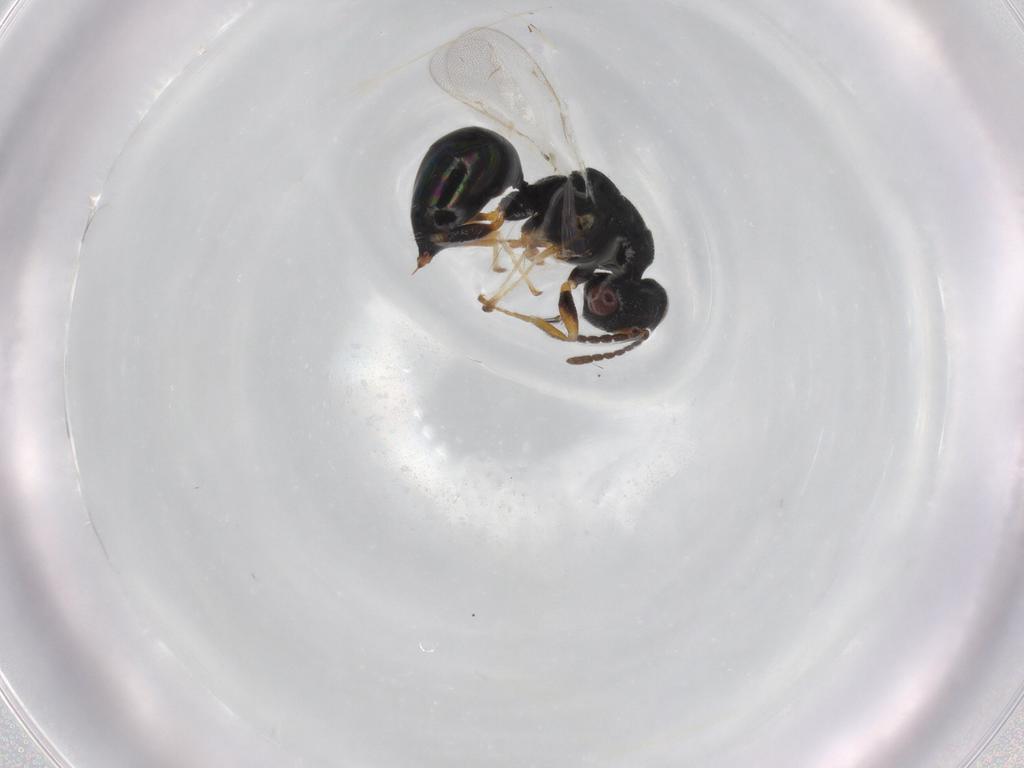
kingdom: Animalia
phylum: Arthropoda
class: Insecta
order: Hymenoptera
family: Eurytomidae
